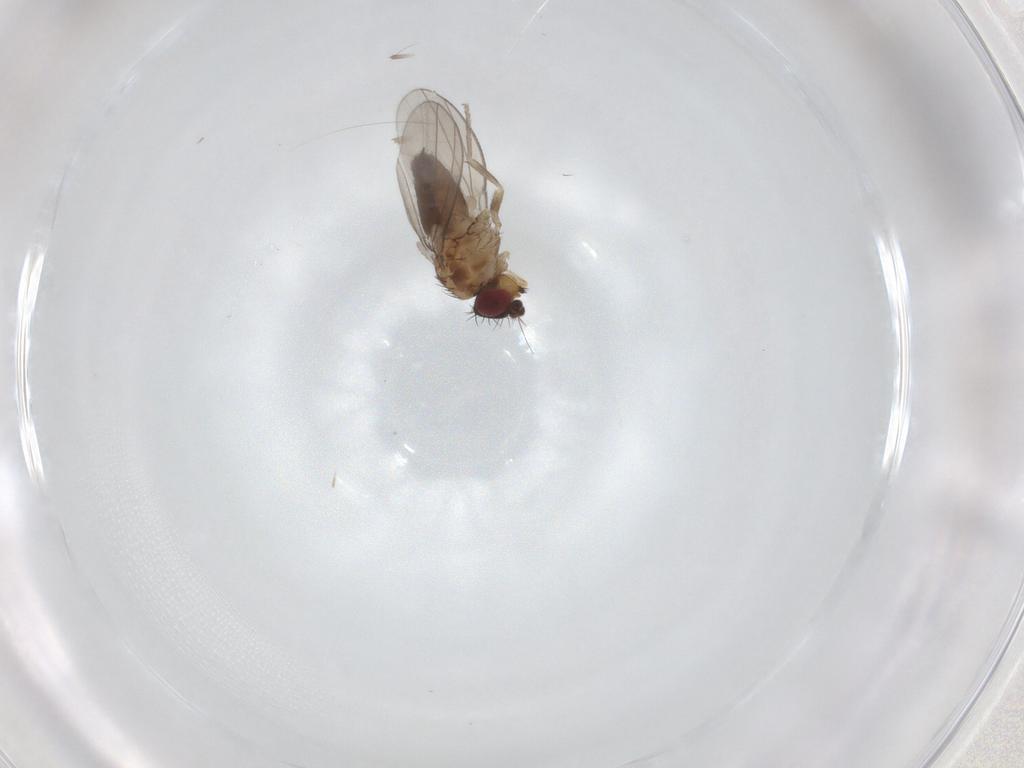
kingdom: Animalia
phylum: Arthropoda
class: Insecta
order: Diptera
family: Milichiidae
